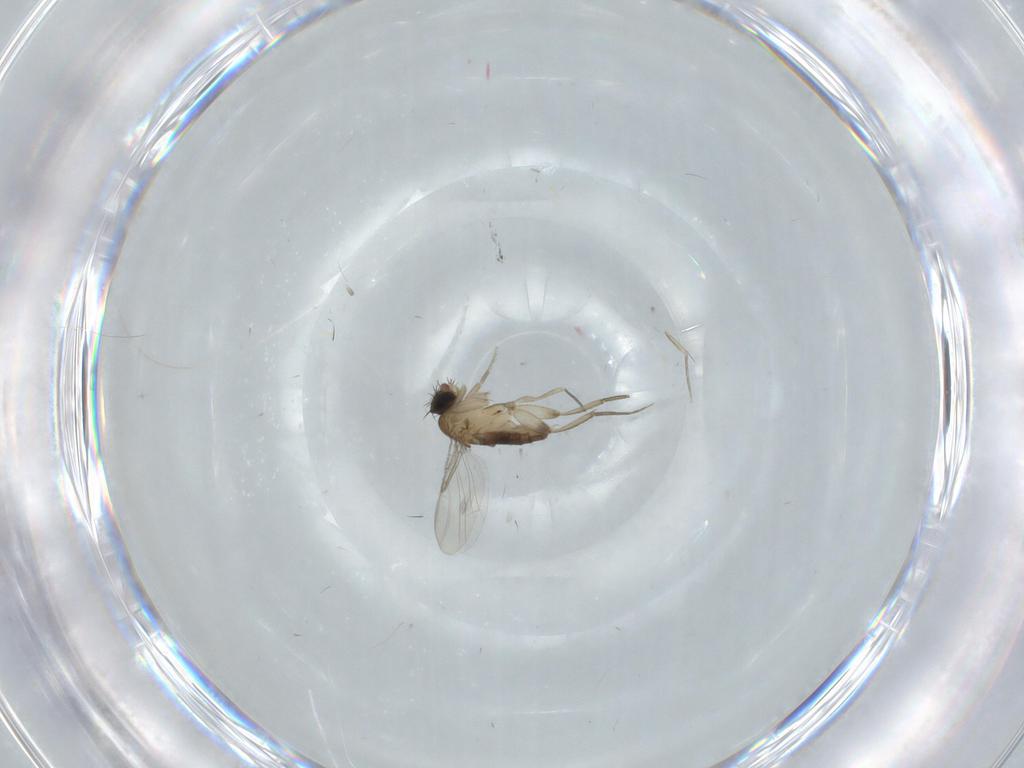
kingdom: Animalia
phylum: Arthropoda
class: Insecta
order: Diptera
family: Phoridae
